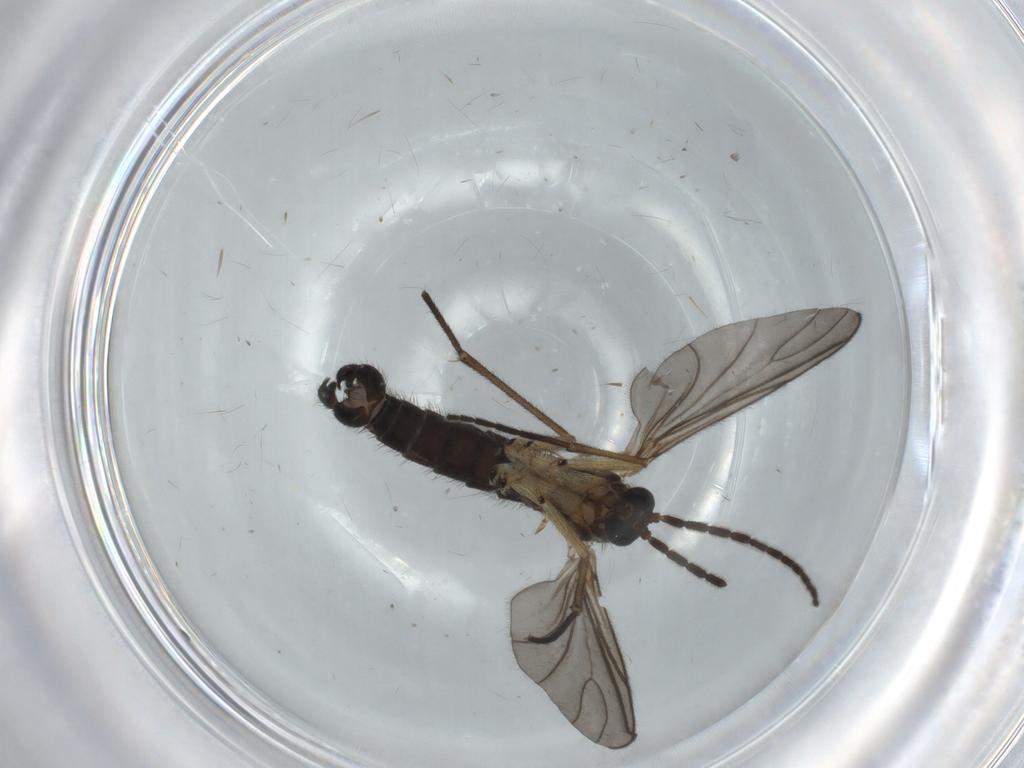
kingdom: Animalia
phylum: Arthropoda
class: Insecta
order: Diptera
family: Sciaridae
